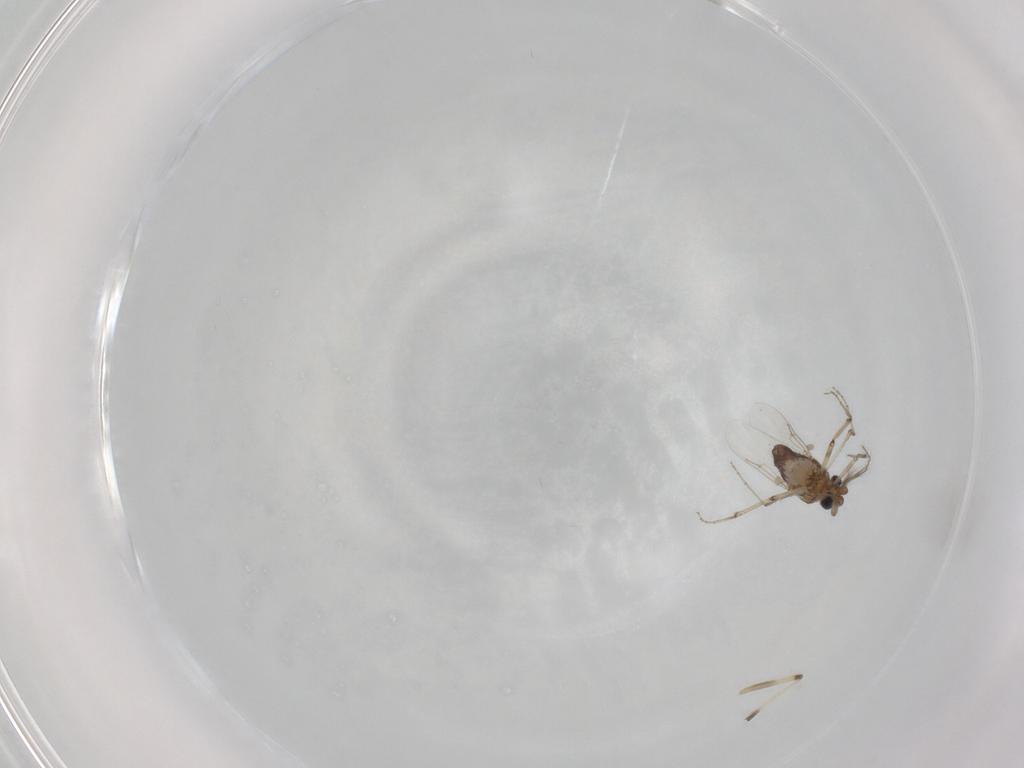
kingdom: Animalia
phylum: Arthropoda
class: Insecta
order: Diptera
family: Ceratopogonidae
